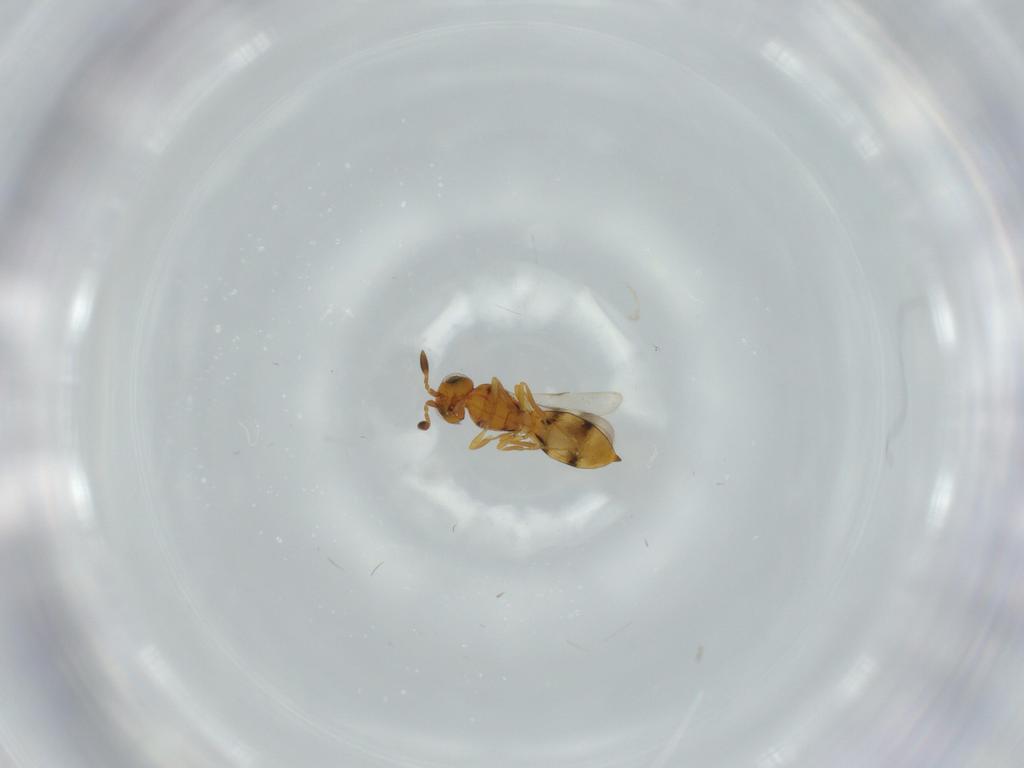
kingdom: Animalia
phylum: Arthropoda
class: Insecta
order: Hymenoptera
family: Scelionidae
